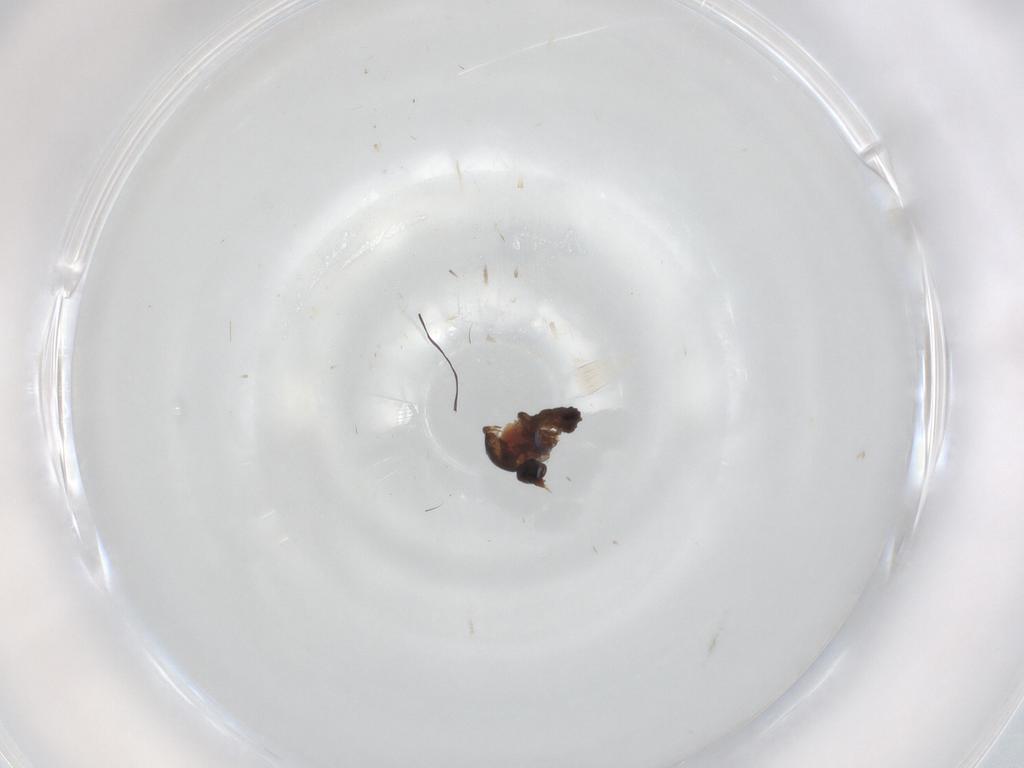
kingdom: Animalia
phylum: Arthropoda
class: Insecta
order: Diptera
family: Ceratopogonidae
